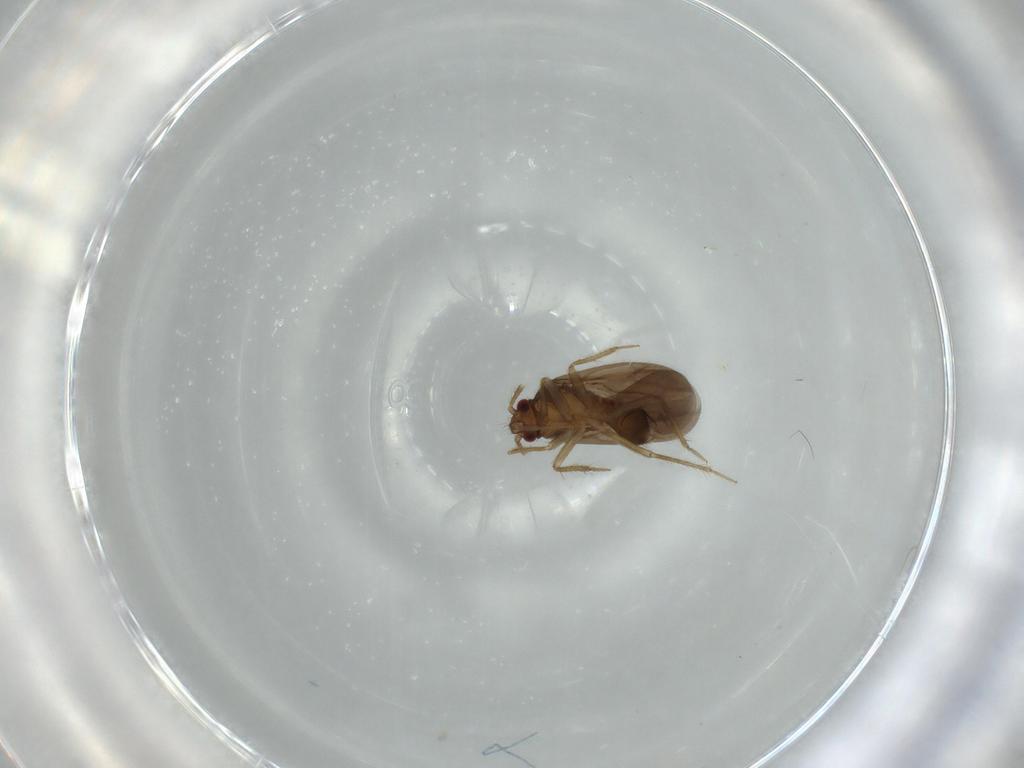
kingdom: Animalia
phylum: Arthropoda
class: Insecta
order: Hemiptera
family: Ceratocombidae
